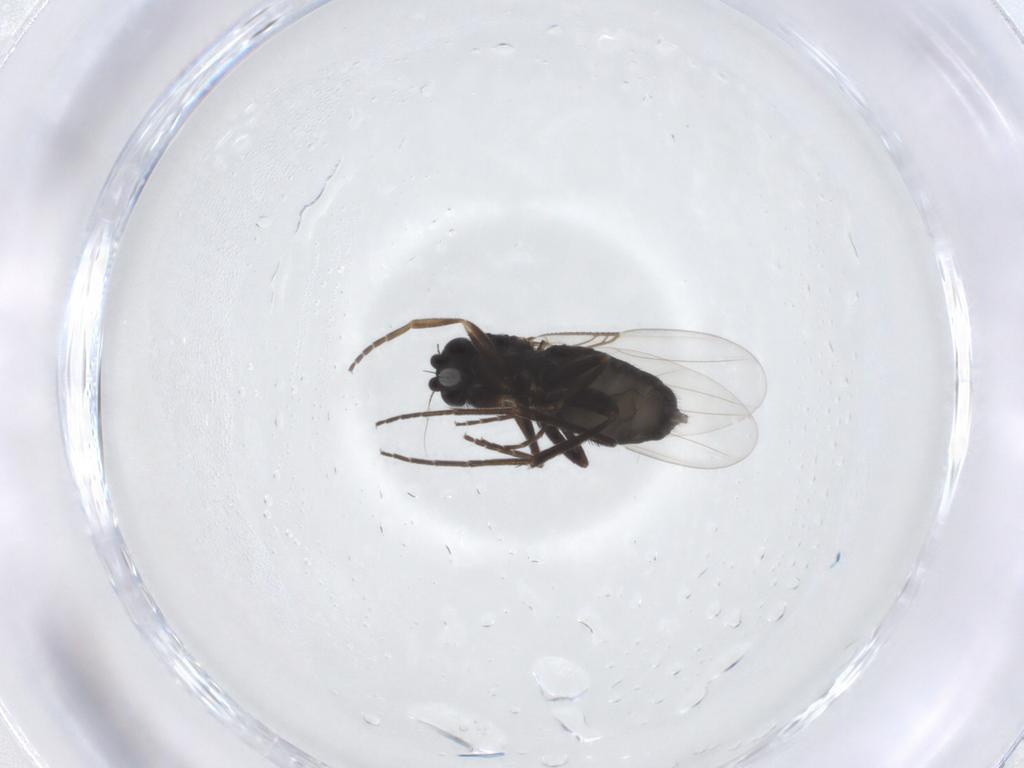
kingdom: Animalia
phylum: Arthropoda
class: Insecta
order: Diptera
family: Phoridae
